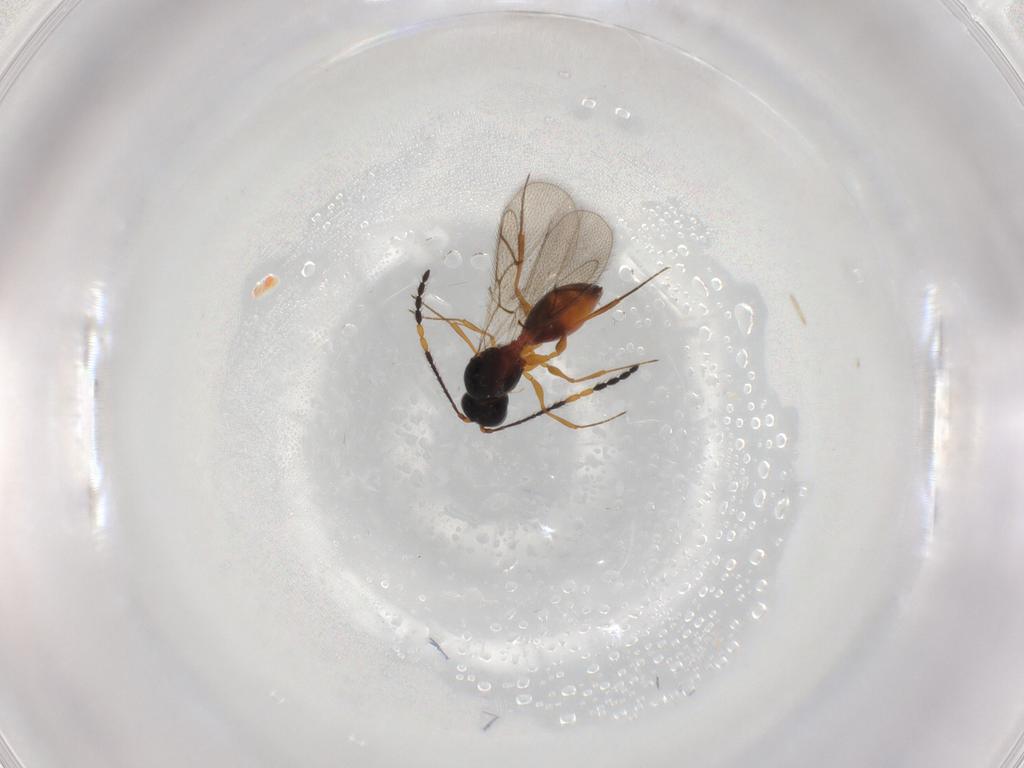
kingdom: Animalia
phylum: Arthropoda
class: Insecta
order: Hymenoptera
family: Figitidae
